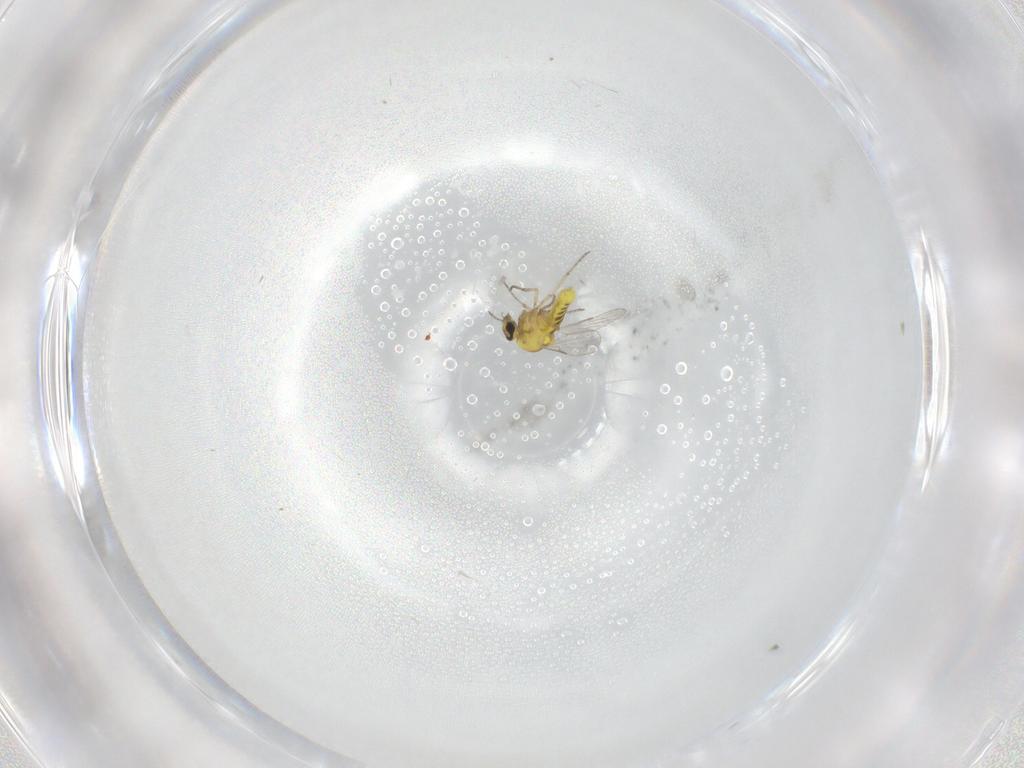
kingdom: Animalia
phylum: Arthropoda
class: Insecta
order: Diptera
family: Ceratopogonidae
